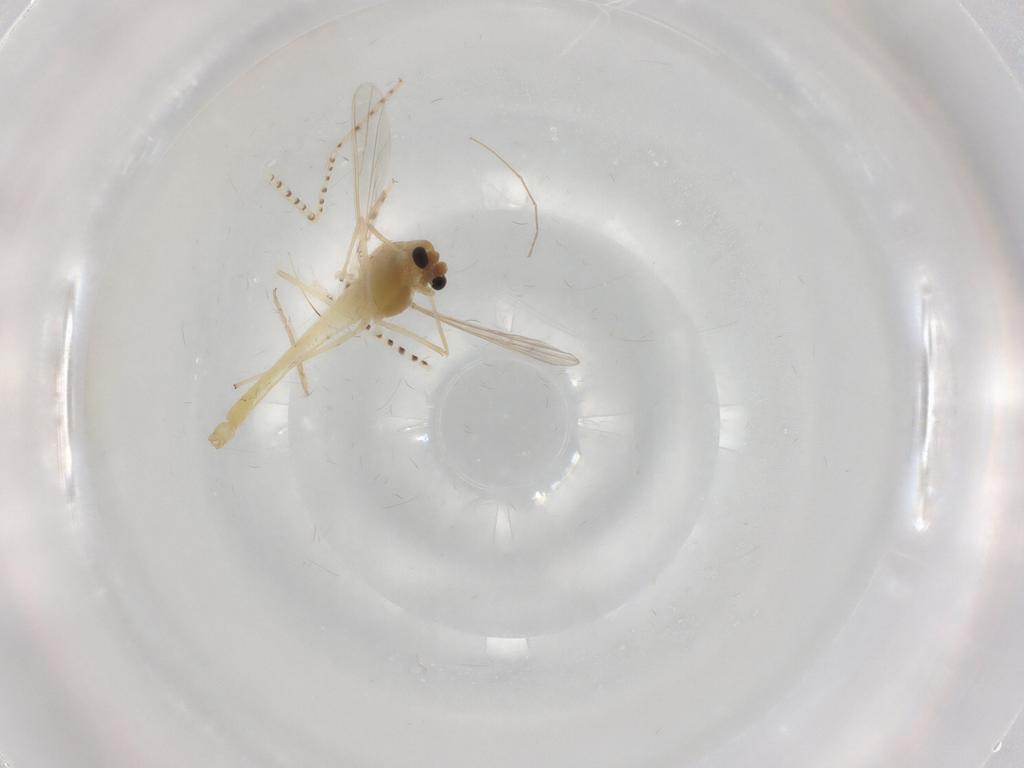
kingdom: Animalia
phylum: Arthropoda
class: Insecta
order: Diptera
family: Chironomidae
